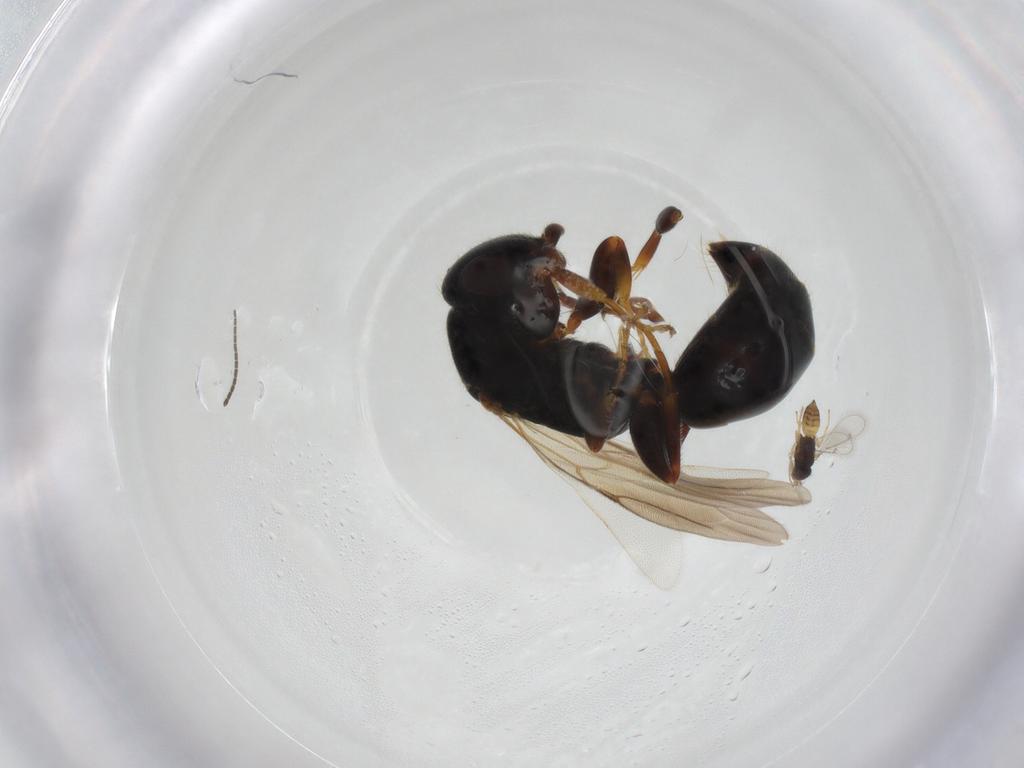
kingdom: Animalia
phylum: Arthropoda
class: Insecta
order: Hymenoptera
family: Bethylidae
